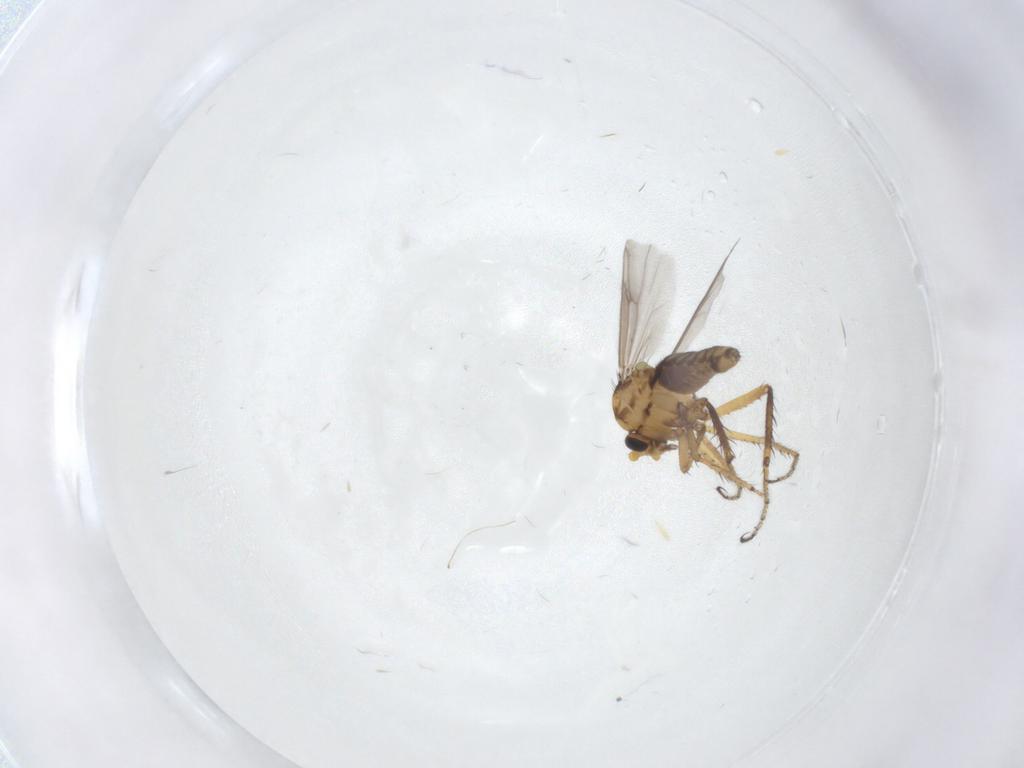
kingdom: Animalia
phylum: Arthropoda
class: Insecta
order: Diptera
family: Ceratopogonidae
